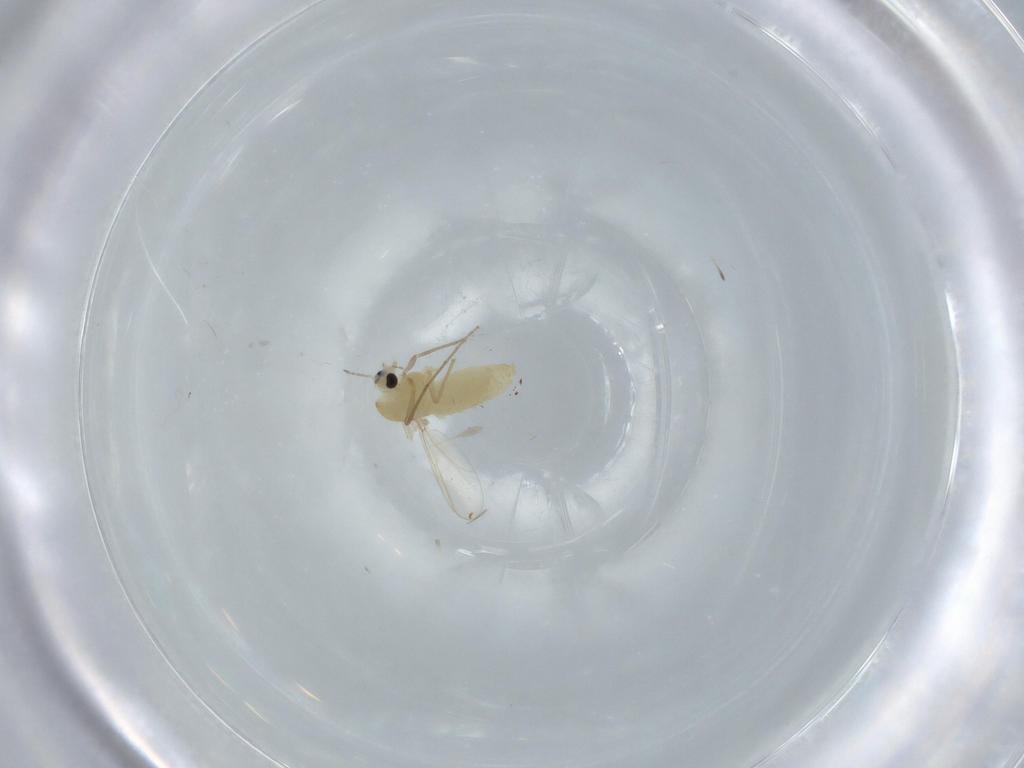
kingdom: Animalia
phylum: Arthropoda
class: Insecta
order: Diptera
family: Chironomidae
